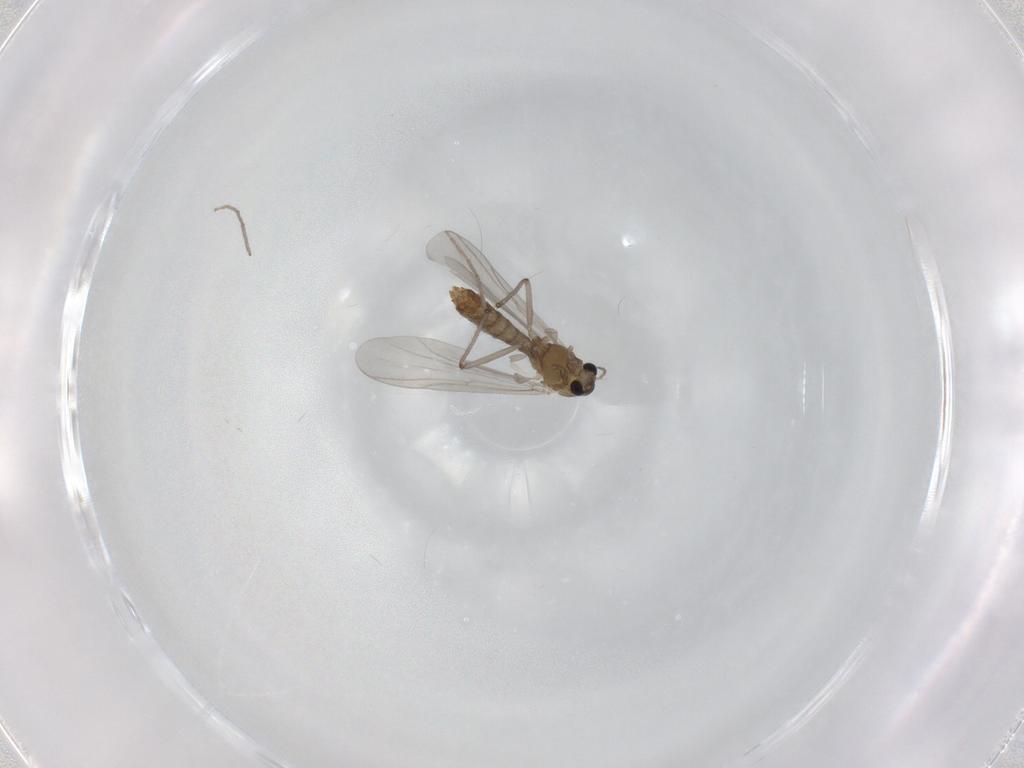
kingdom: Animalia
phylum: Arthropoda
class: Insecta
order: Diptera
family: Chironomidae
